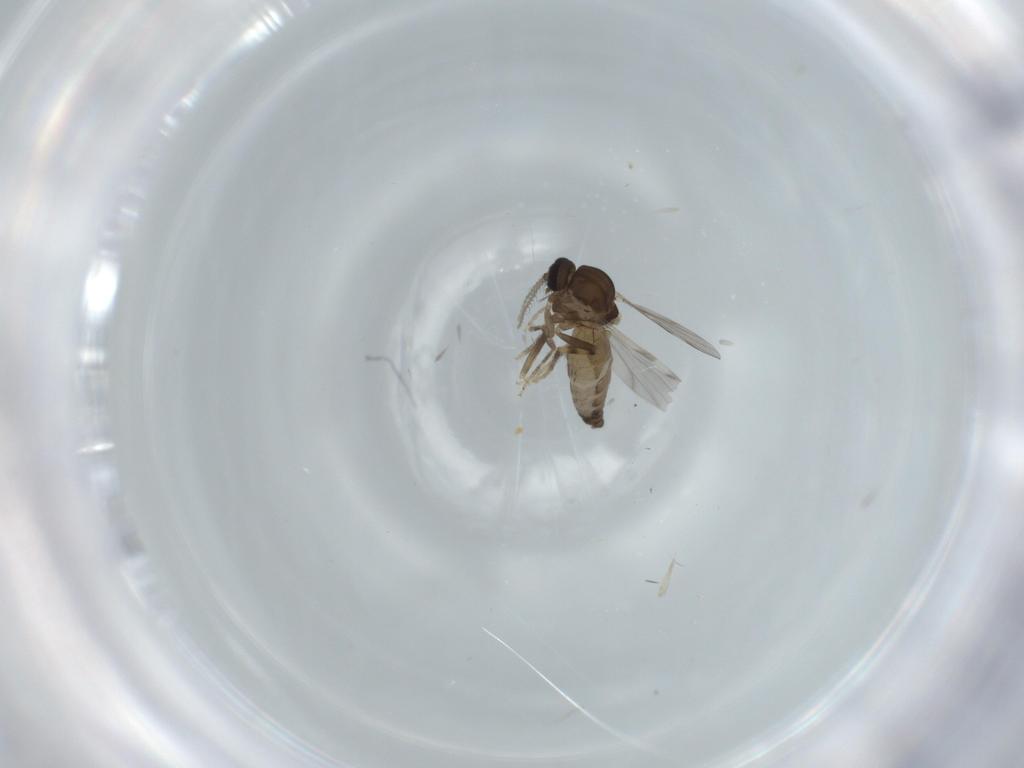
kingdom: Animalia
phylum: Arthropoda
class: Insecta
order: Diptera
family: Ceratopogonidae
